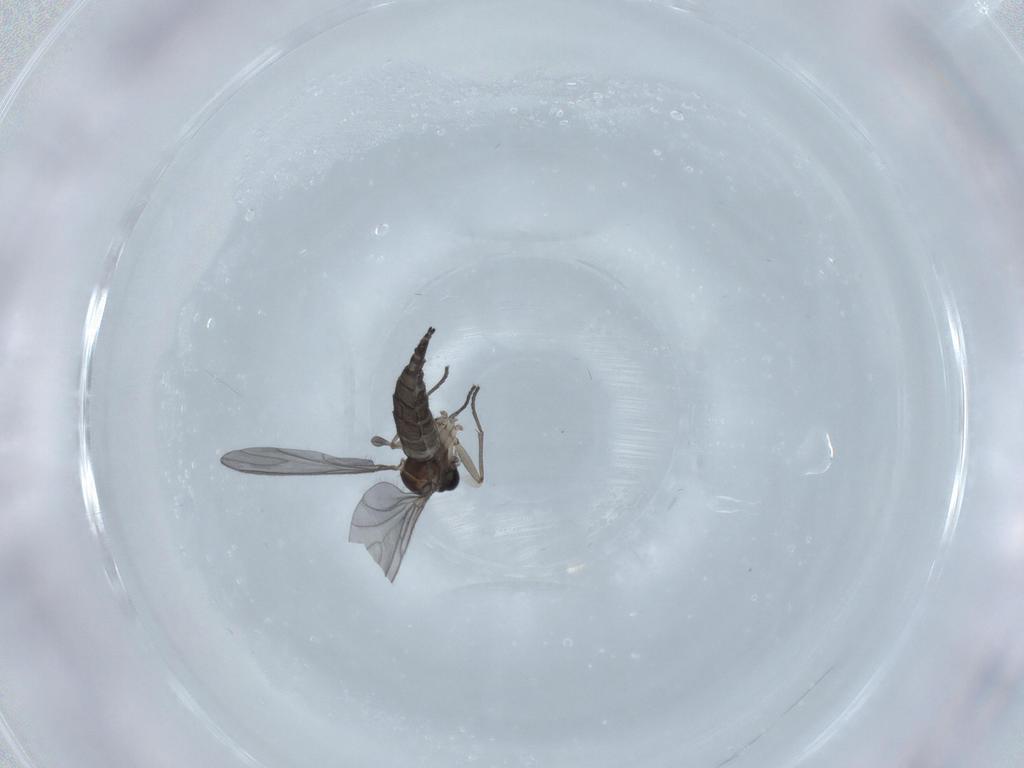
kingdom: Animalia
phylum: Arthropoda
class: Insecta
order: Diptera
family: Sciaridae
